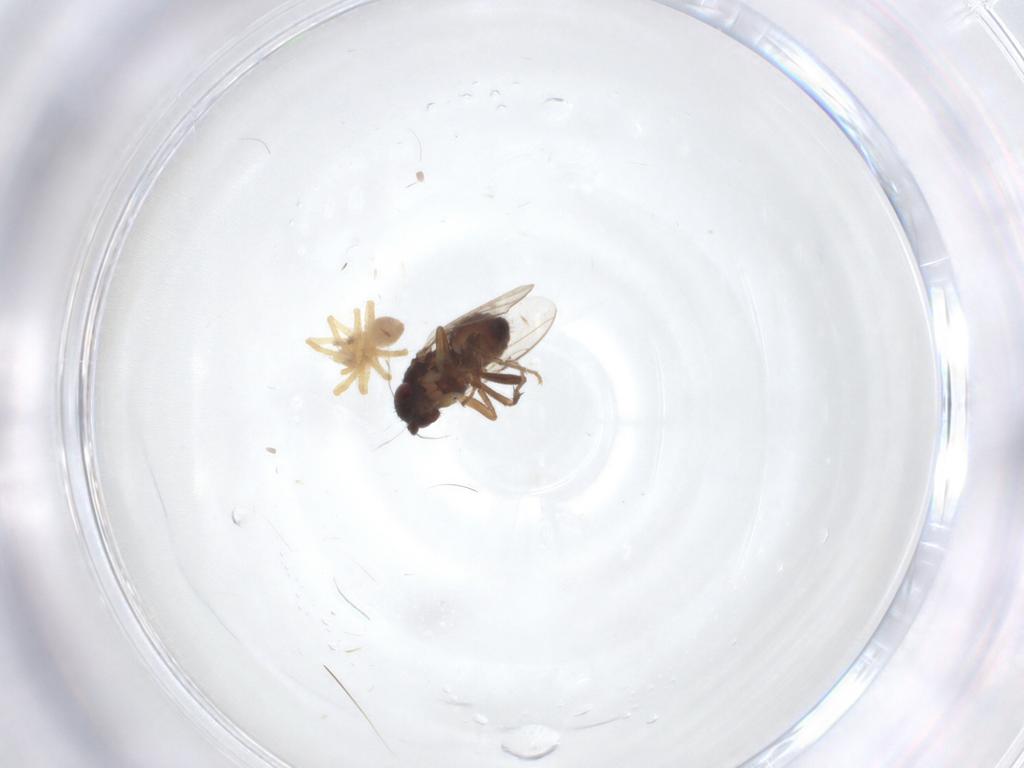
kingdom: Animalia
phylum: Arthropoda
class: Insecta
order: Diptera
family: Sphaeroceridae
